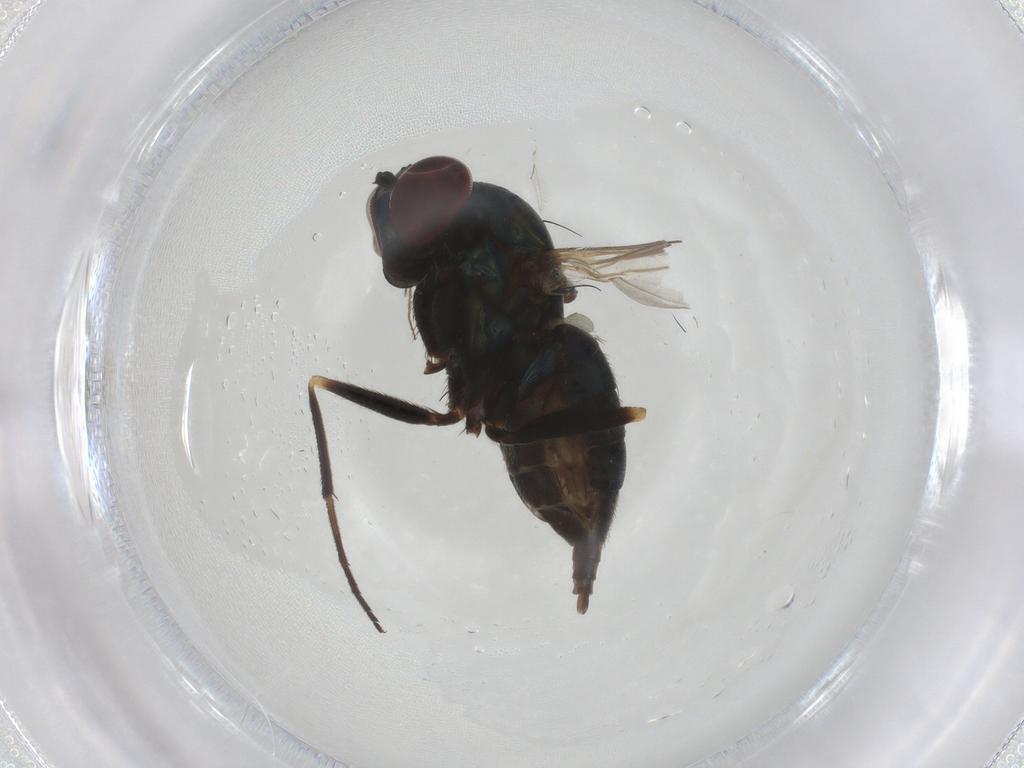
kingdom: Animalia
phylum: Arthropoda
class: Insecta
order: Diptera
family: Dolichopodidae
